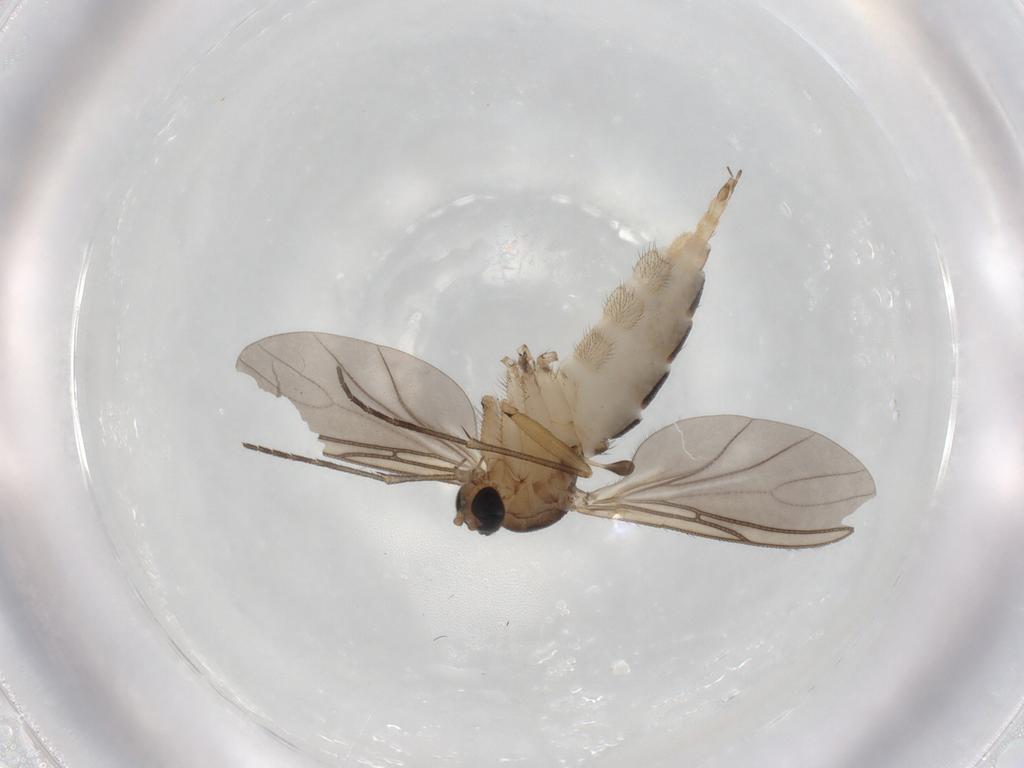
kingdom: Animalia
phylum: Arthropoda
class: Insecta
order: Diptera
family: Sciaridae
